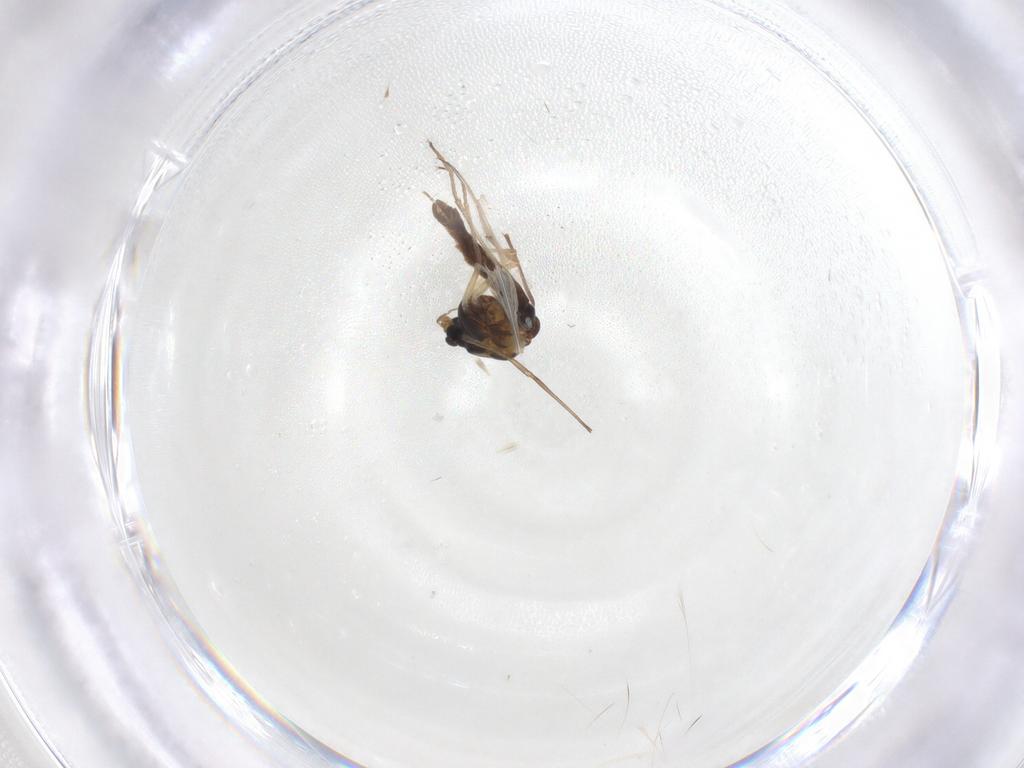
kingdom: Animalia
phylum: Arthropoda
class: Insecta
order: Diptera
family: Chironomidae
